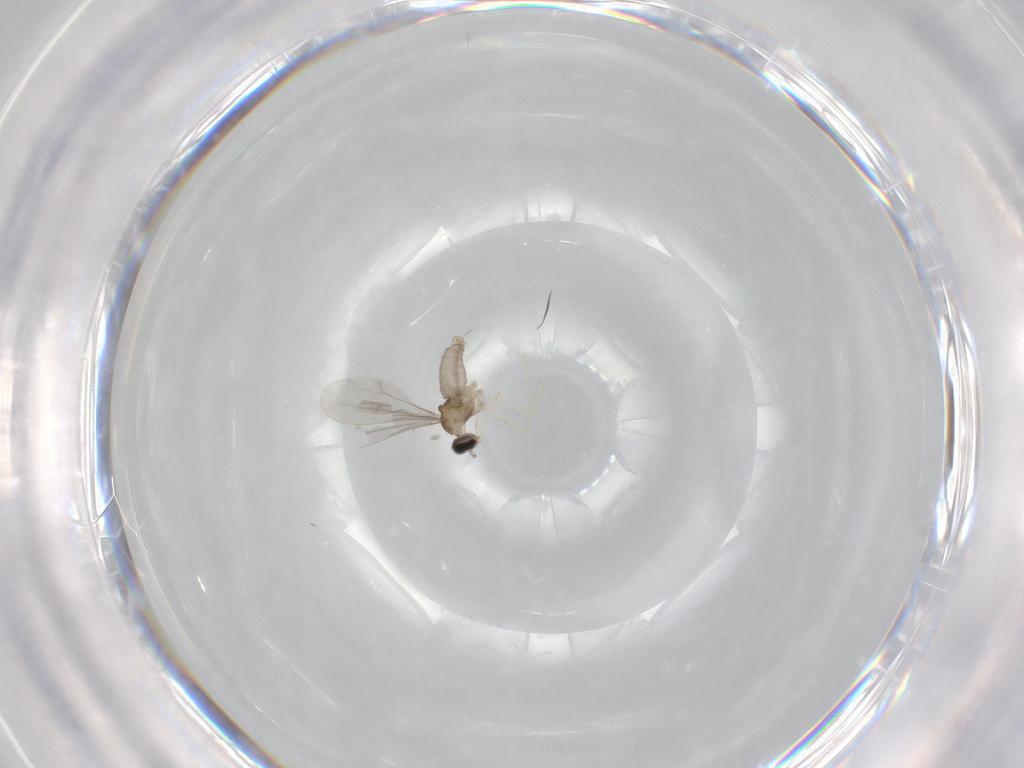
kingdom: Animalia
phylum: Arthropoda
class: Insecta
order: Diptera
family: Cecidomyiidae
